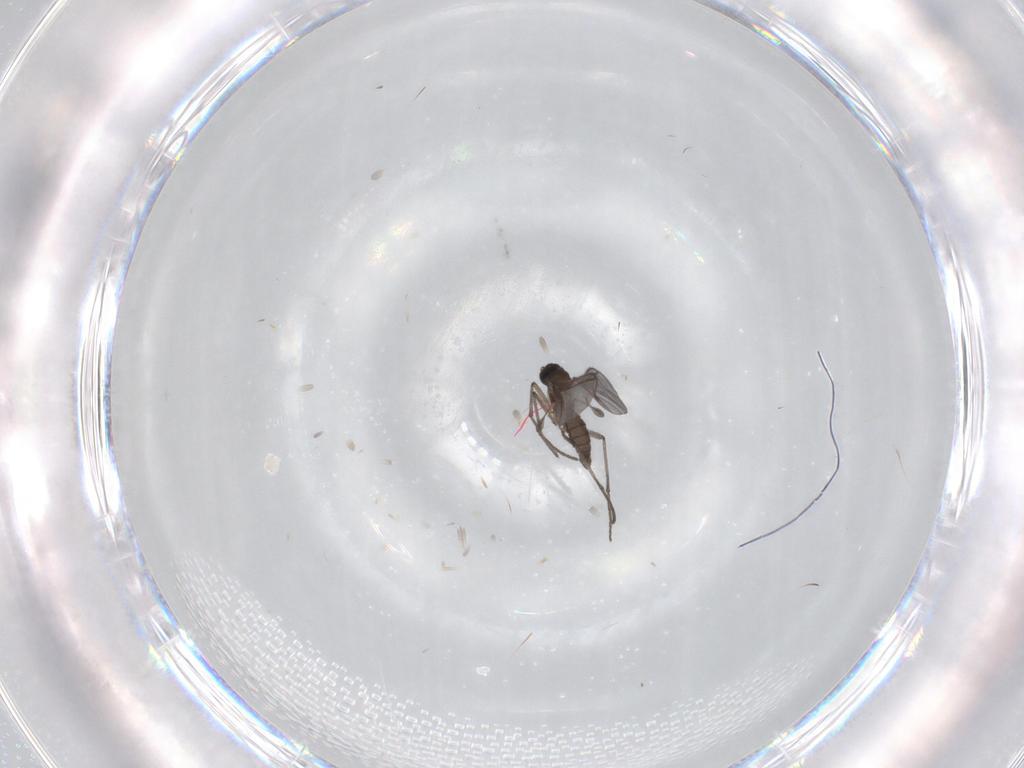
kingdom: Animalia
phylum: Arthropoda
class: Insecta
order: Diptera
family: Sciaridae
